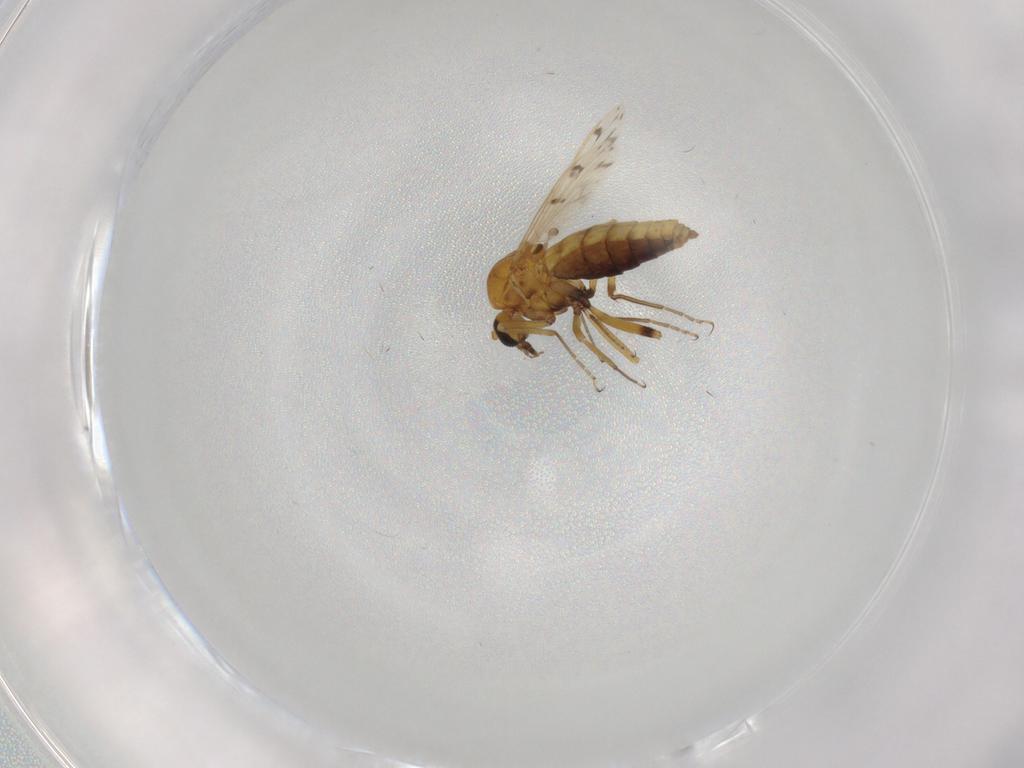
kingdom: Animalia
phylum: Arthropoda
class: Insecta
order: Diptera
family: Ceratopogonidae
